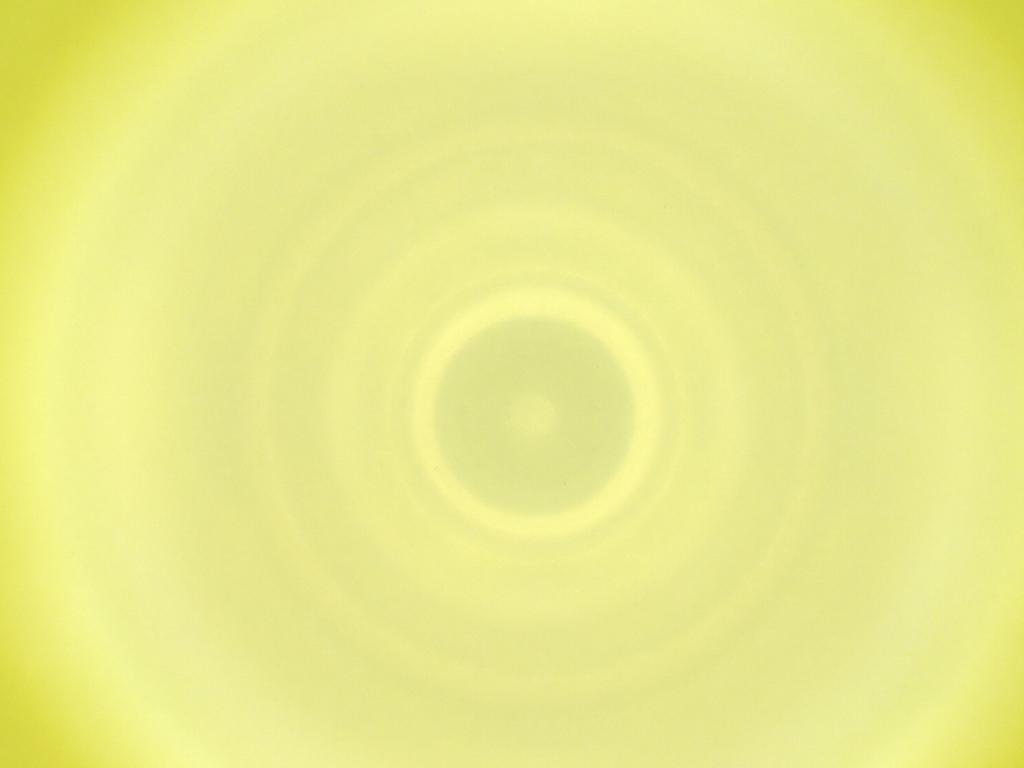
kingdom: Animalia
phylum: Arthropoda
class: Insecta
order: Diptera
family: Cecidomyiidae
